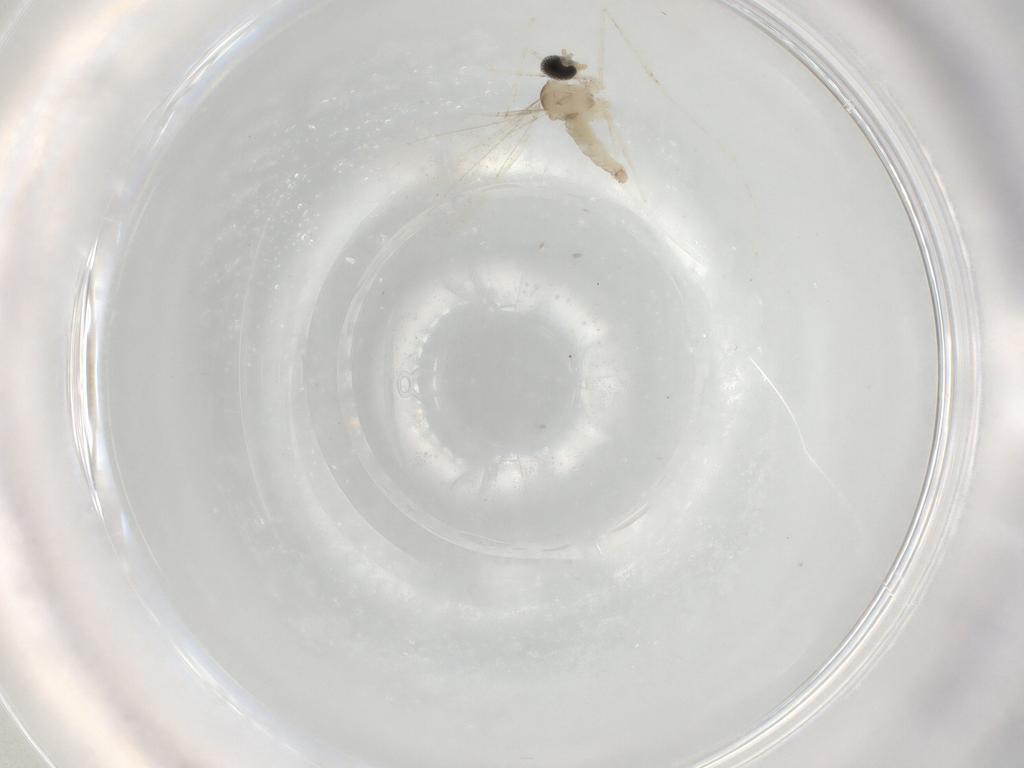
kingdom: Animalia
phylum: Arthropoda
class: Insecta
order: Diptera
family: Cecidomyiidae
